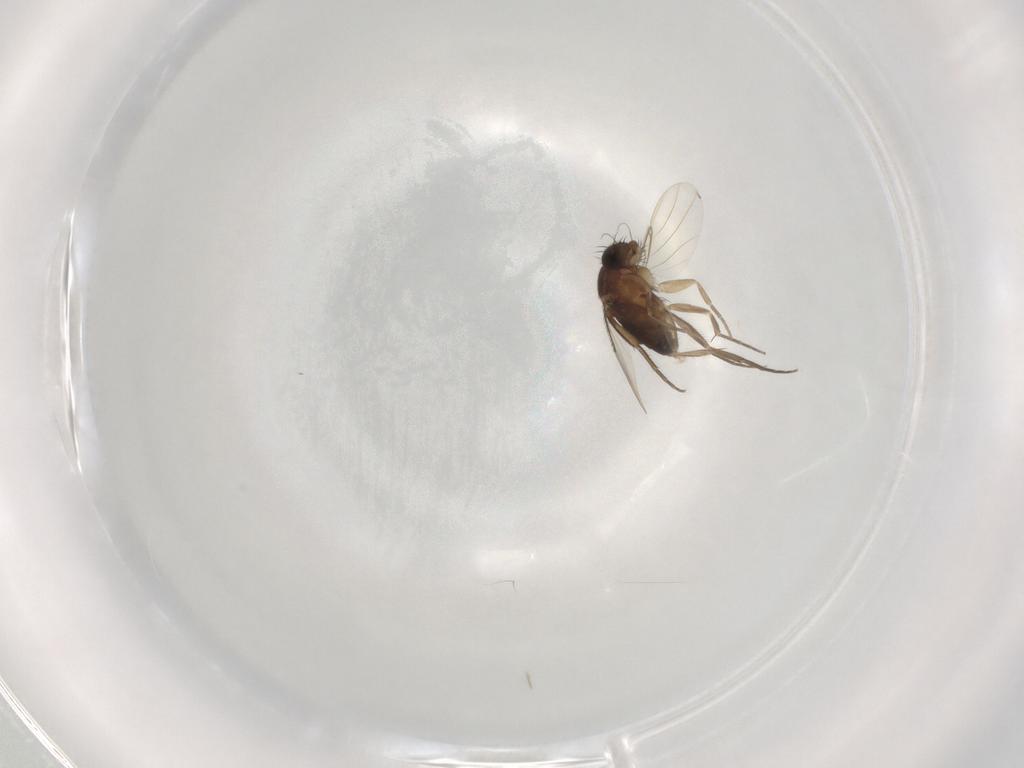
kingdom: Animalia
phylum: Arthropoda
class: Insecta
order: Diptera
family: Phoridae
